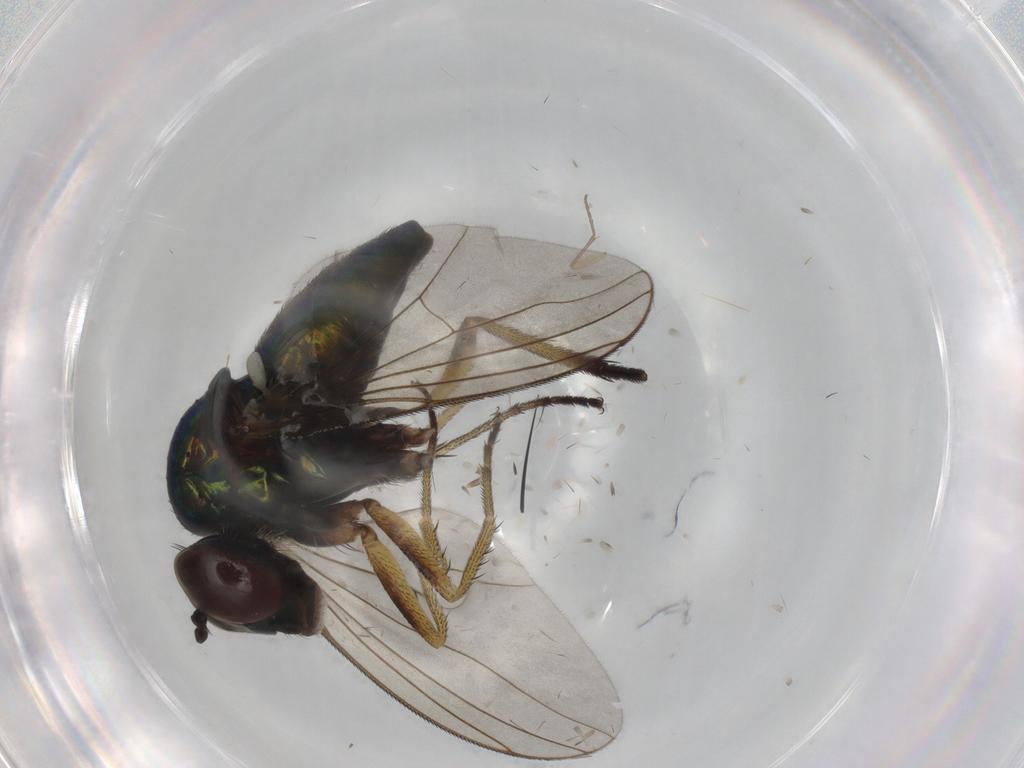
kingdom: Animalia
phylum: Arthropoda
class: Insecta
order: Diptera
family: Dolichopodidae
